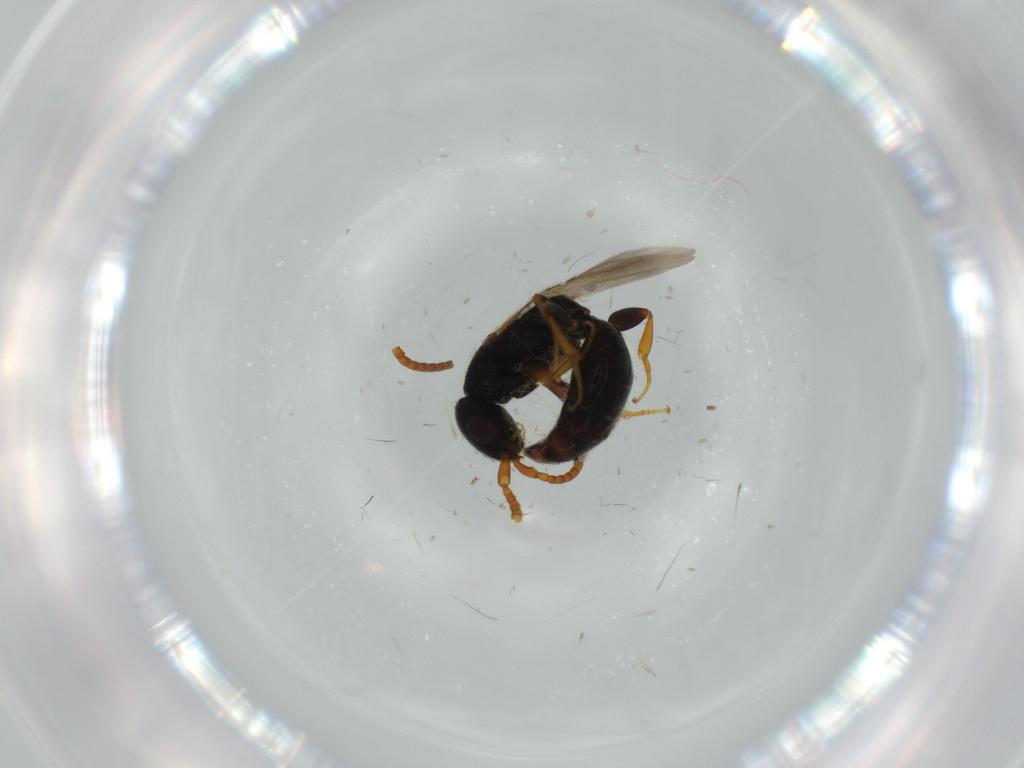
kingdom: Animalia
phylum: Arthropoda
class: Insecta
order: Hymenoptera
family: Bethylidae
